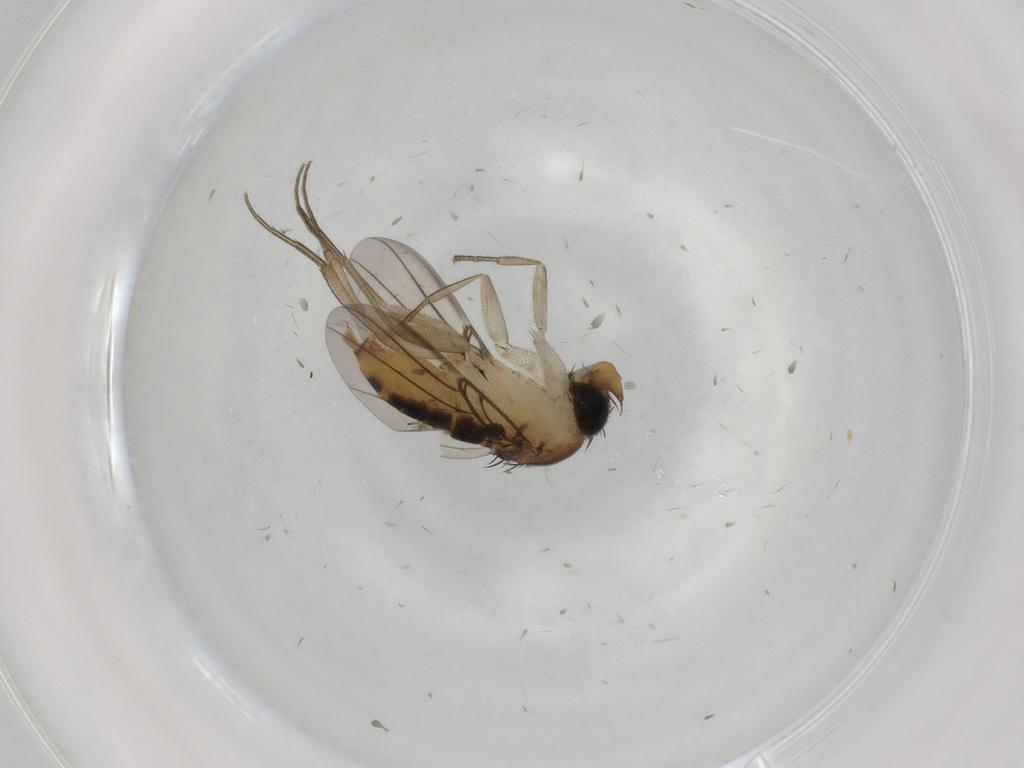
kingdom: Animalia
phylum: Arthropoda
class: Insecta
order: Diptera
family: Phoridae
